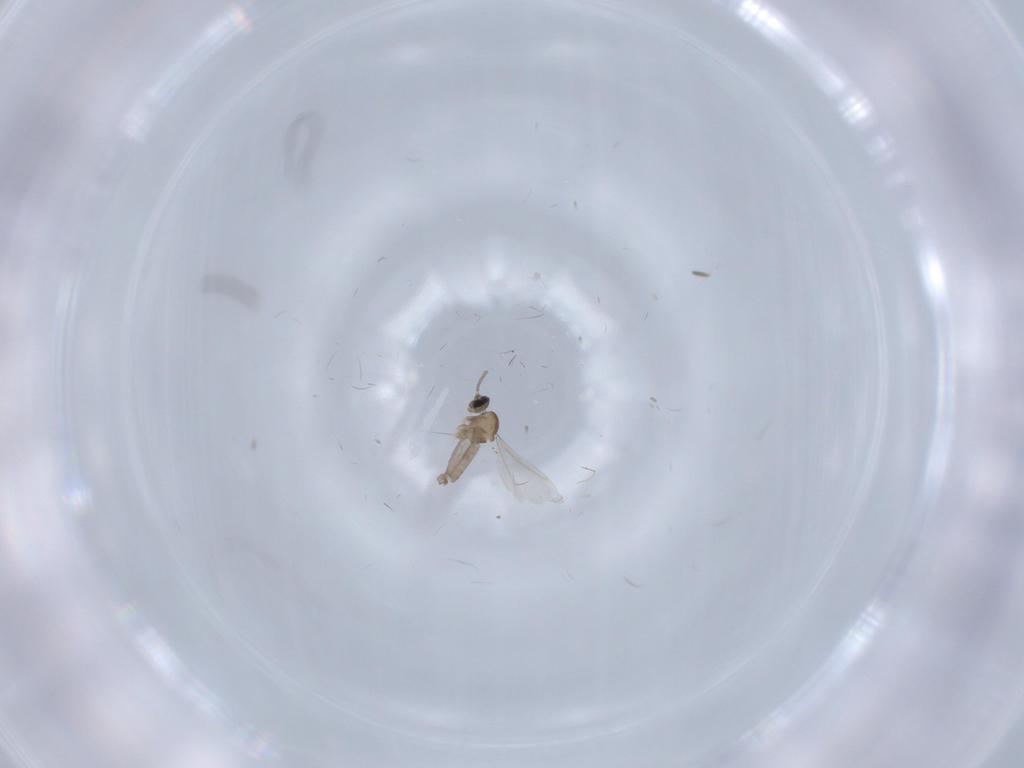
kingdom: Animalia
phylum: Arthropoda
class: Insecta
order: Diptera
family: Cecidomyiidae
